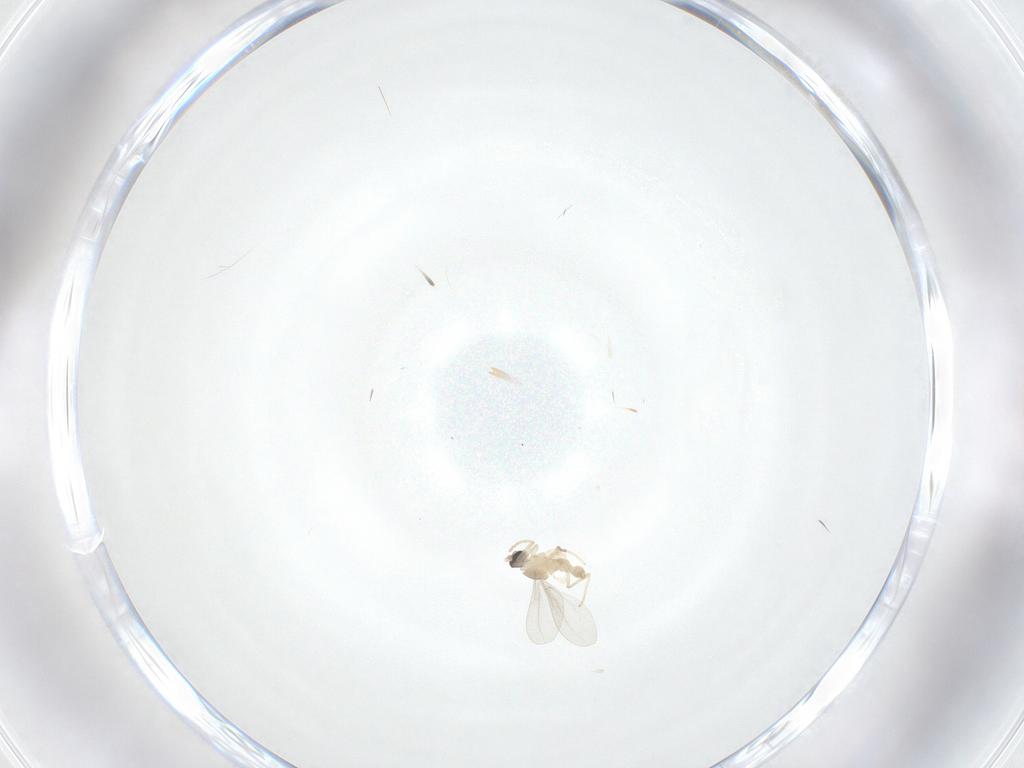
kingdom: Animalia
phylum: Arthropoda
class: Insecta
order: Diptera
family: Cecidomyiidae
